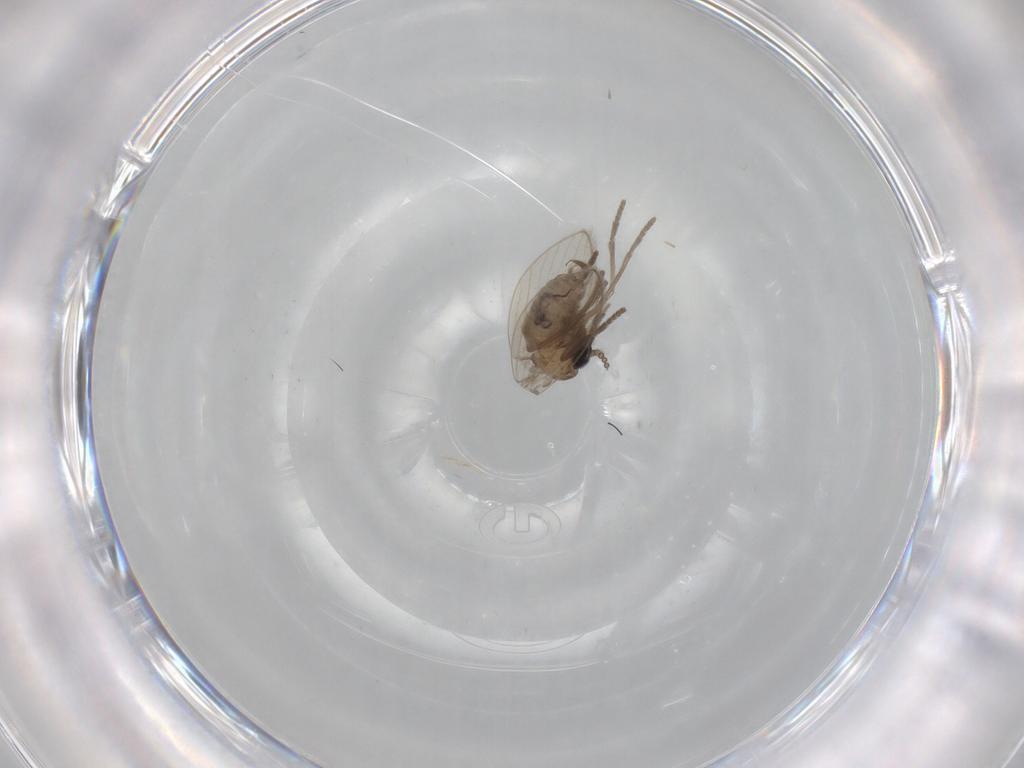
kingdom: Animalia
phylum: Arthropoda
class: Insecta
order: Diptera
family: Psychodidae
